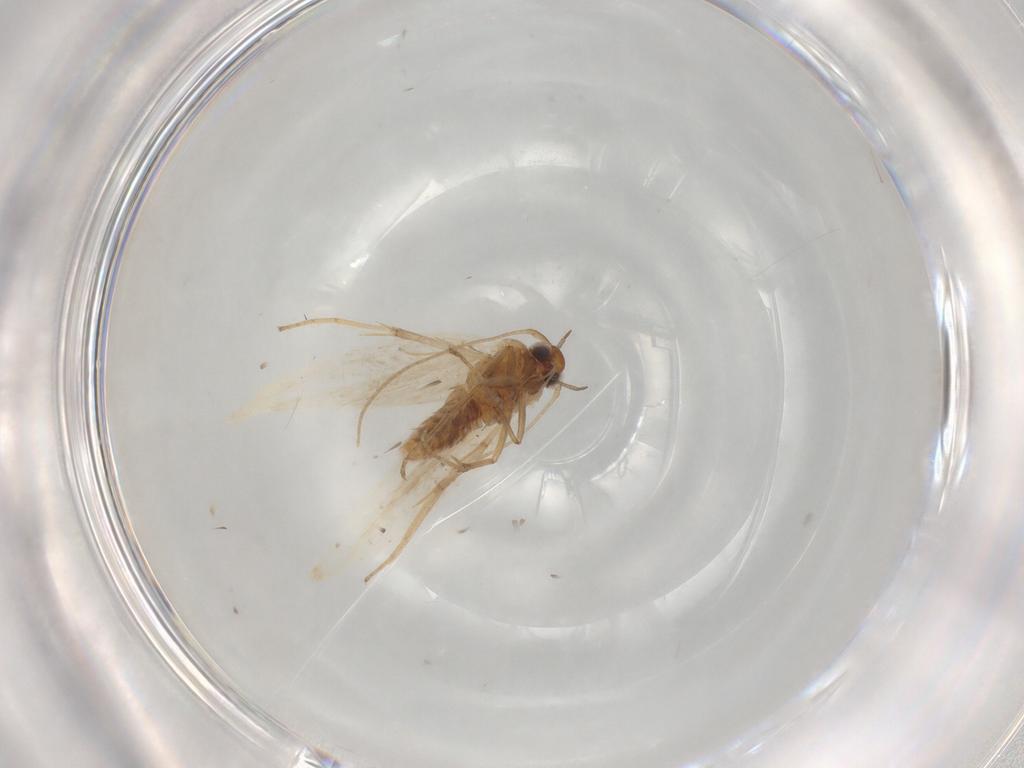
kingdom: Animalia
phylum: Arthropoda
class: Insecta
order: Lepidoptera
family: Gelechiidae
